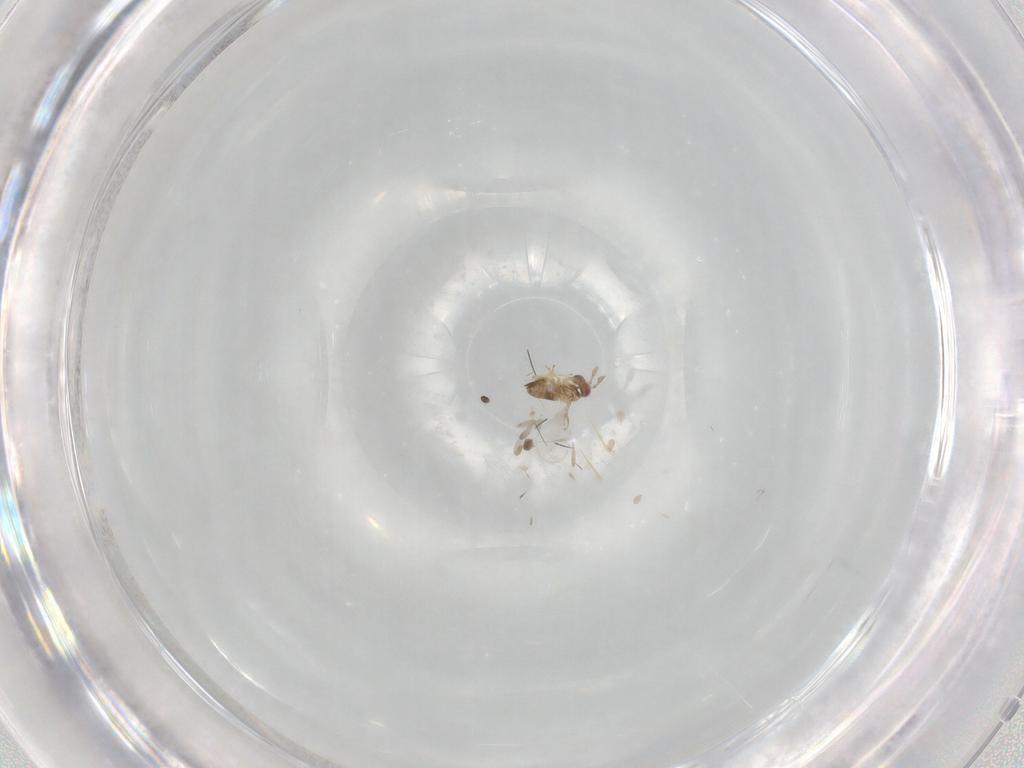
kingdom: Animalia
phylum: Arthropoda
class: Insecta
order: Hymenoptera
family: Trichogrammatidae
